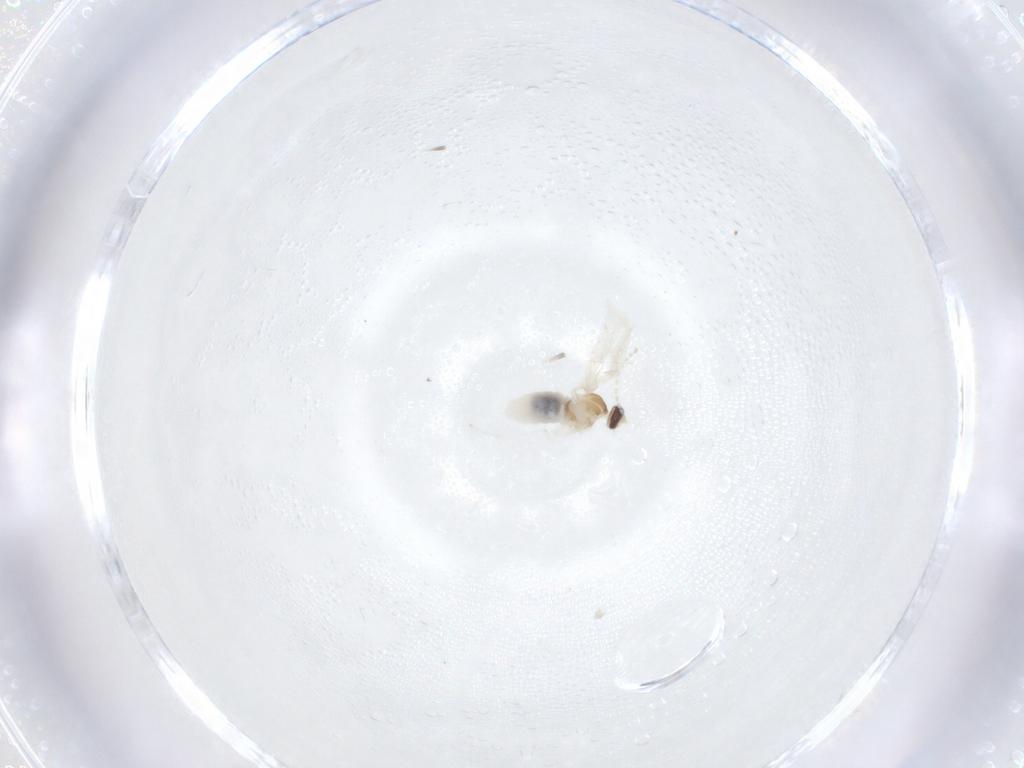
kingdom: Animalia
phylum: Arthropoda
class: Insecta
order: Diptera
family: Cecidomyiidae
